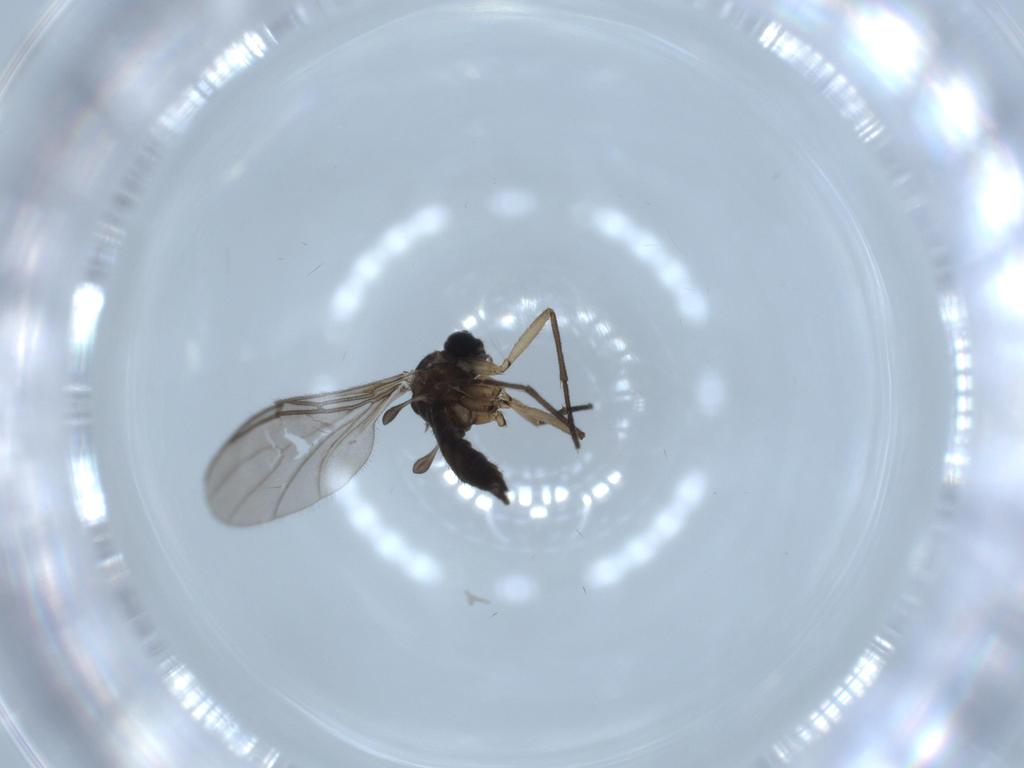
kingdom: Animalia
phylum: Arthropoda
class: Insecta
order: Diptera
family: Sciaridae
